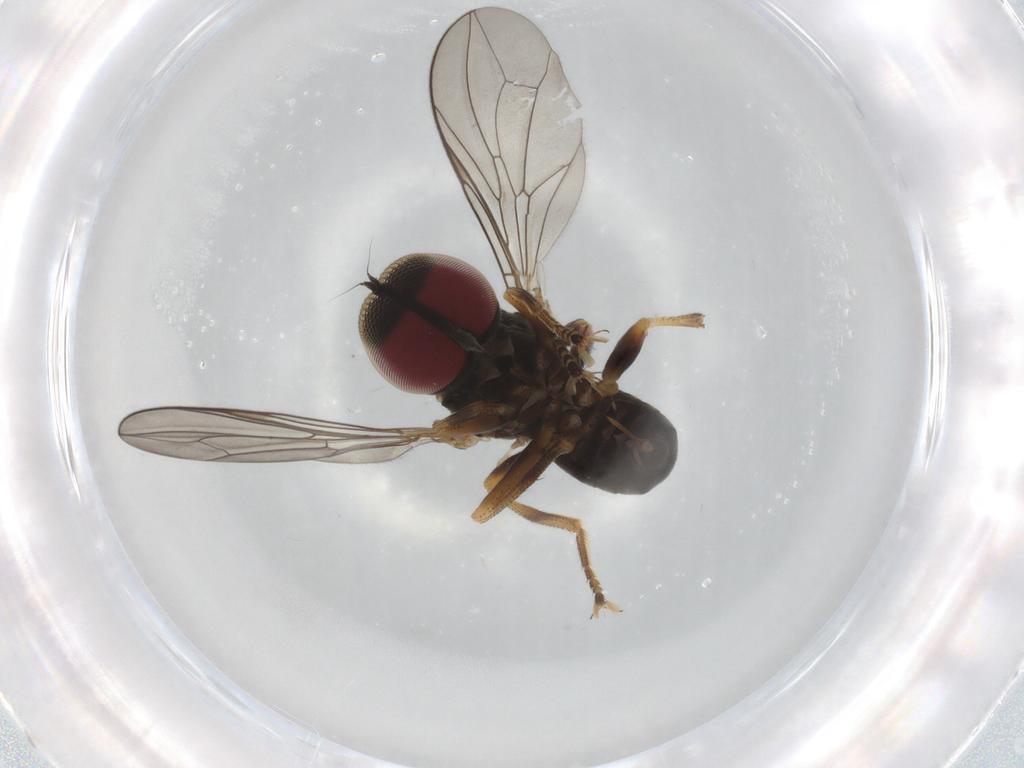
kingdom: Animalia
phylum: Arthropoda
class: Insecta
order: Diptera
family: Pipunculidae
